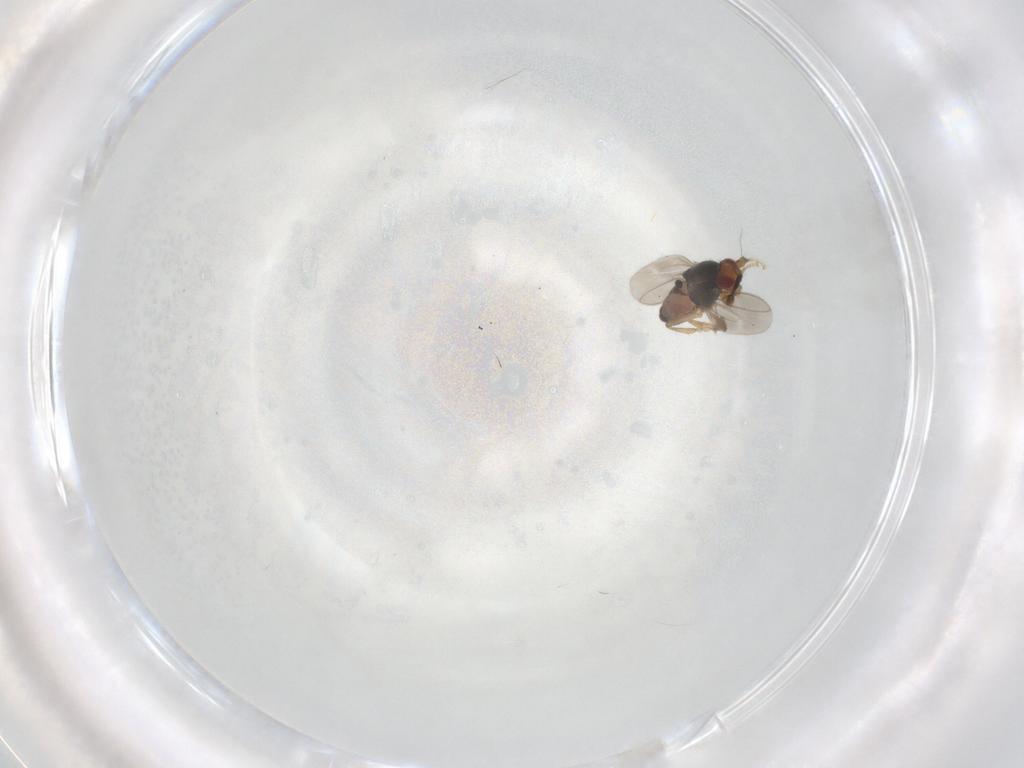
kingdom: Animalia
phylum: Arthropoda
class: Insecta
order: Diptera
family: Sphaeroceridae
